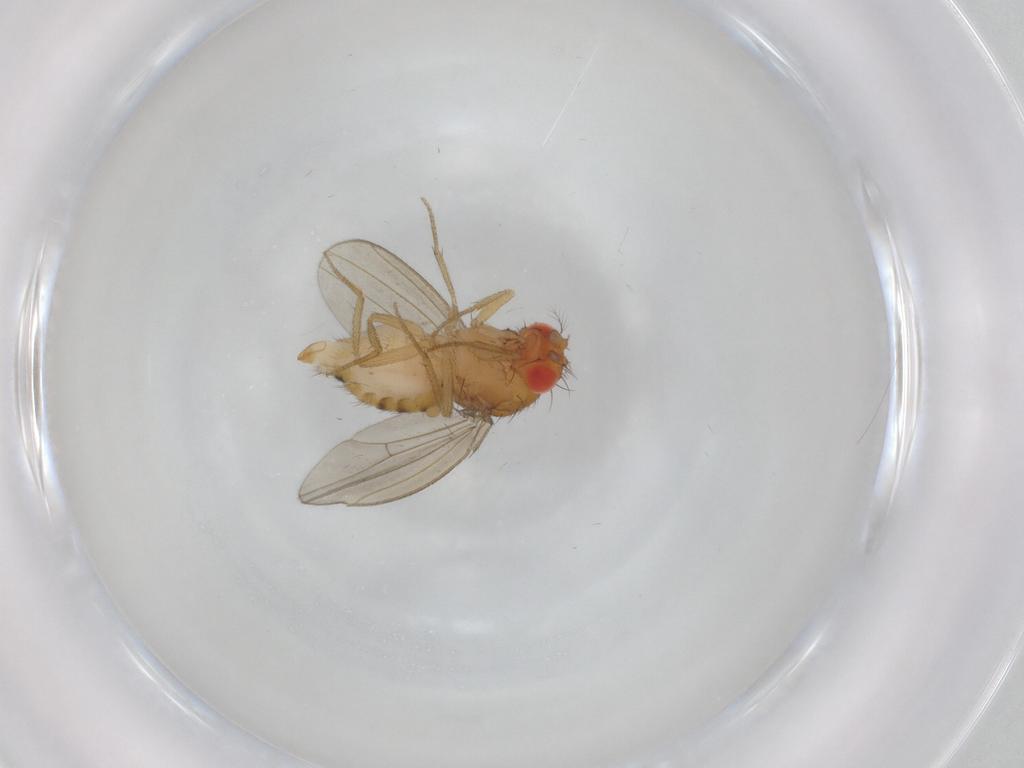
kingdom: Animalia
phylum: Arthropoda
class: Insecta
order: Diptera
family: Drosophilidae
